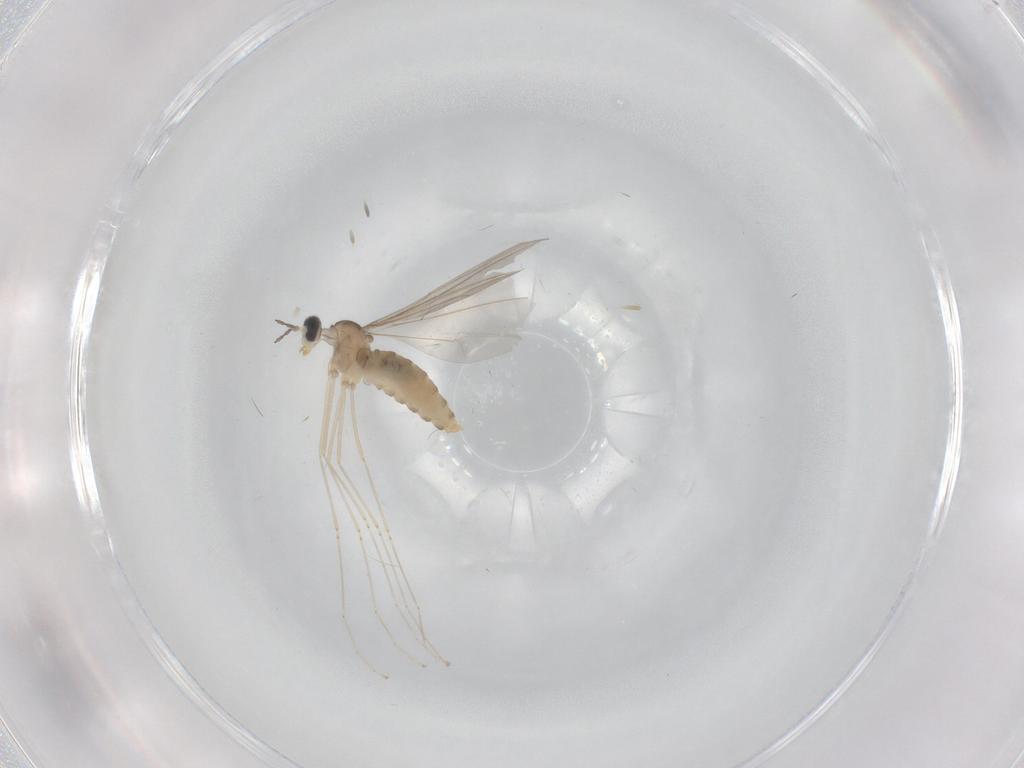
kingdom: Animalia
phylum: Arthropoda
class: Insecta
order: Diptera
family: Cecidomyiidae
